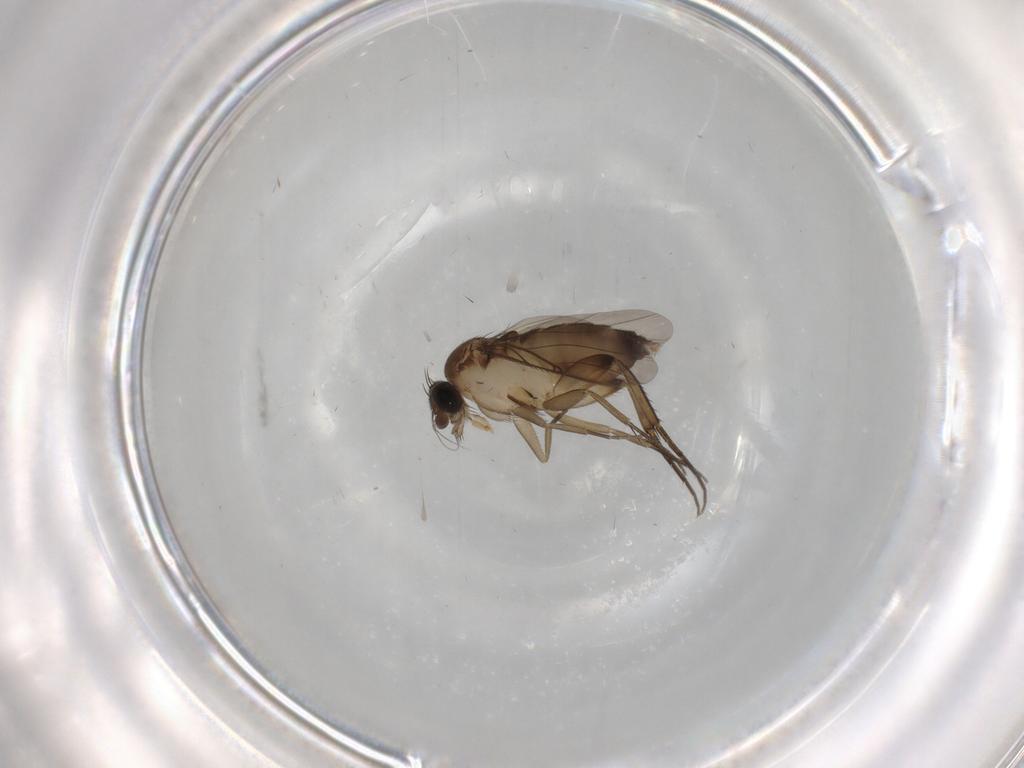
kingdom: Animalia
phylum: Arthropoda
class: Insecta
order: Diptera
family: Phoridae
